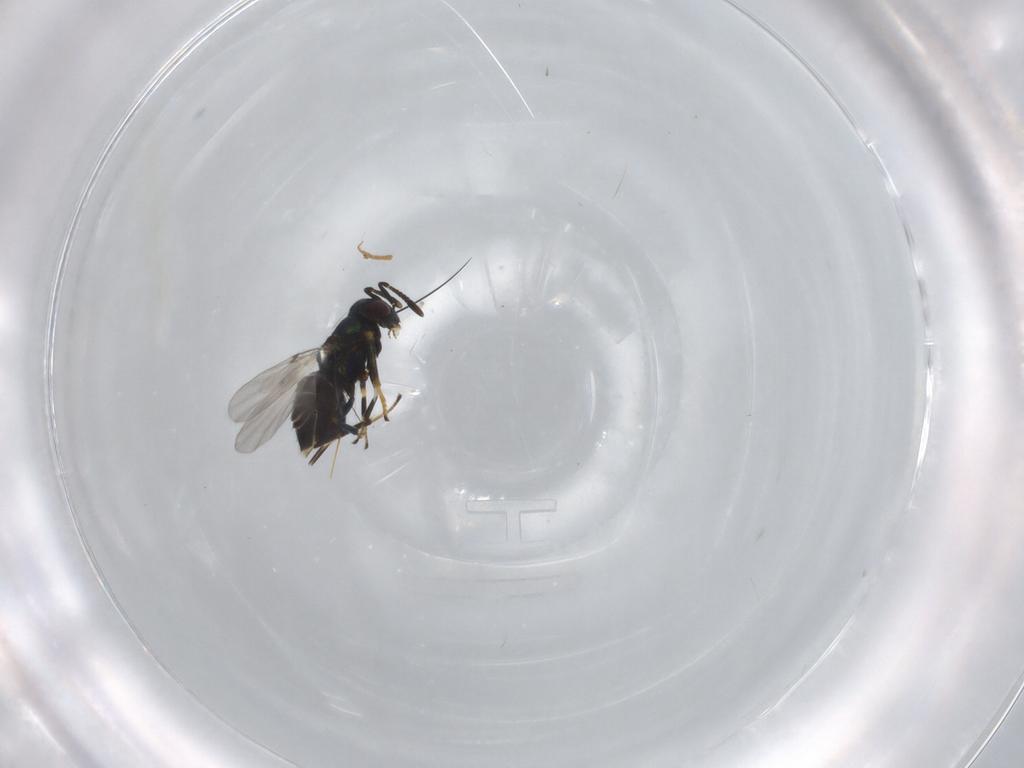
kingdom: Animalia
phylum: Arthropoda
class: Insecta
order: Hymenoptera
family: Encyrtidae
